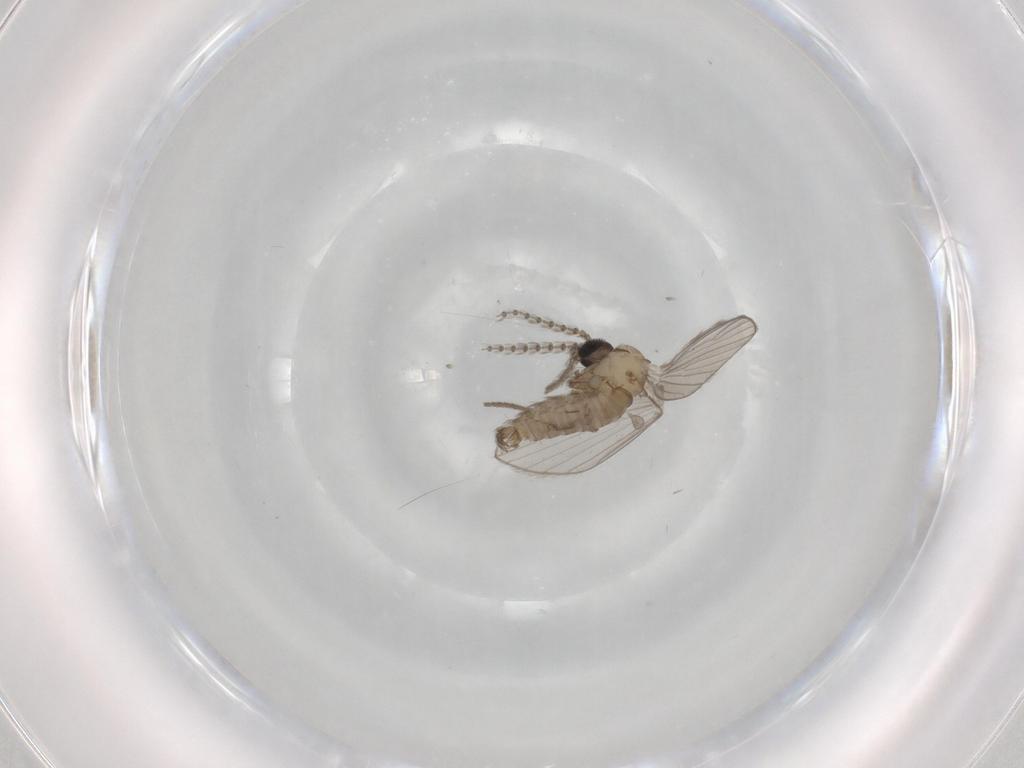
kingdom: Animalia
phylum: Arthropoda
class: Insecta
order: Diptera
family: Psychodidae
